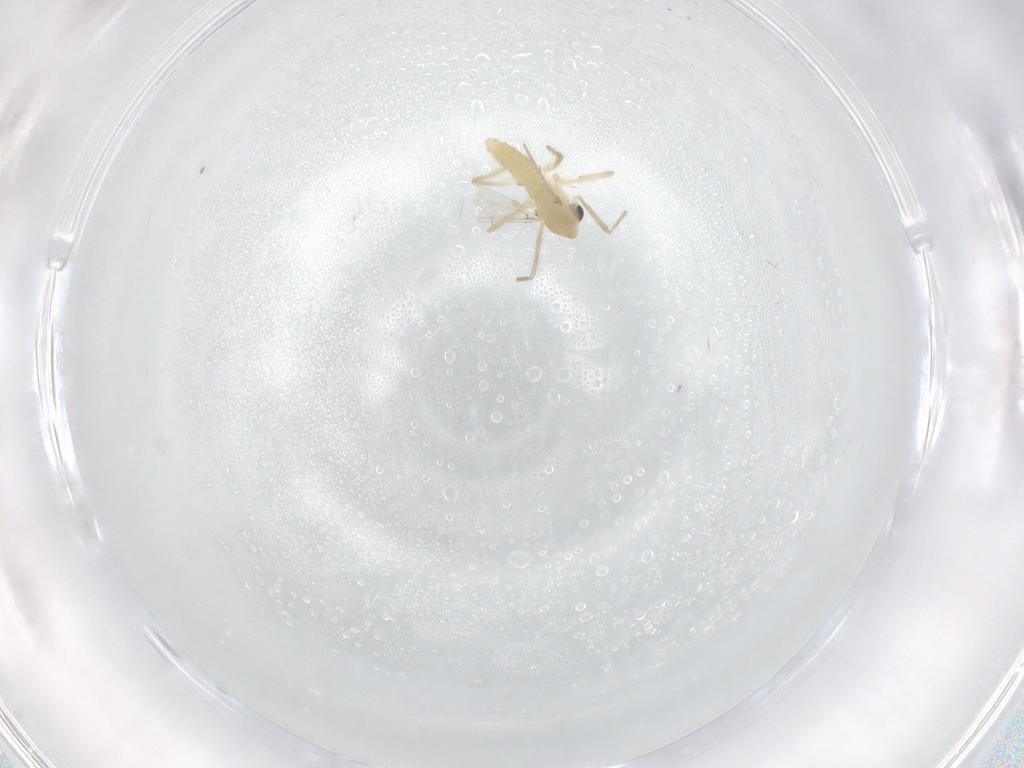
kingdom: Animalia
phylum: Arthropoda
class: Insecta
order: Diptera
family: Chironomidae
